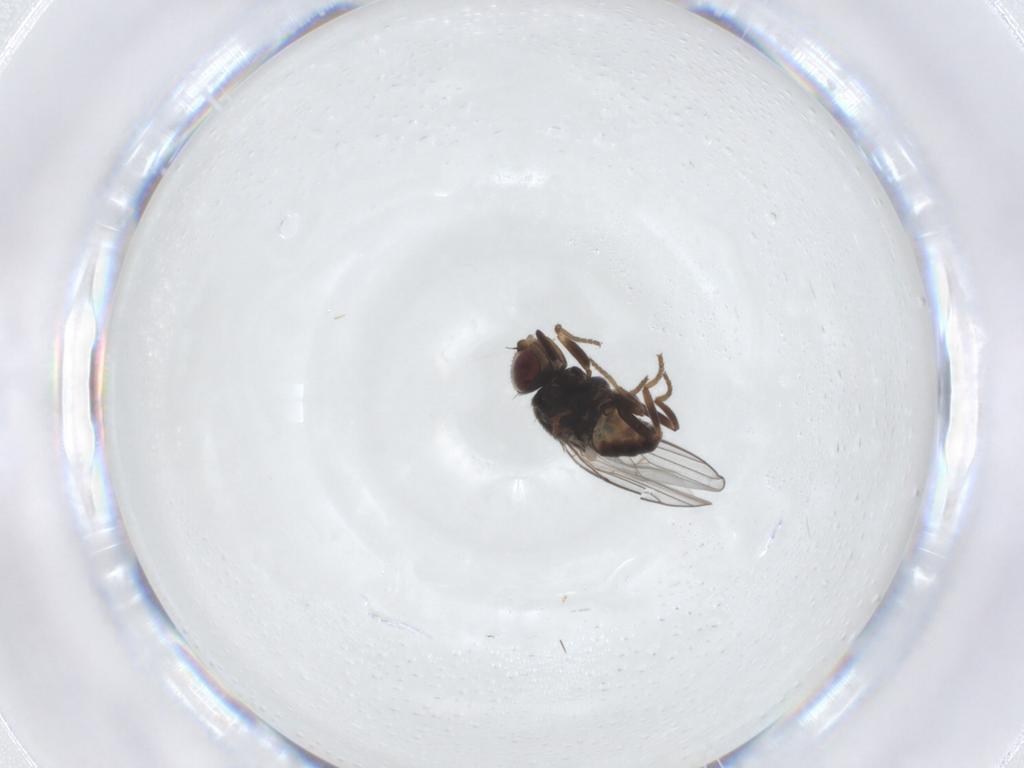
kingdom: Animalia
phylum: Arthropoda
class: Insecta
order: Diptera
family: Chloropidae
